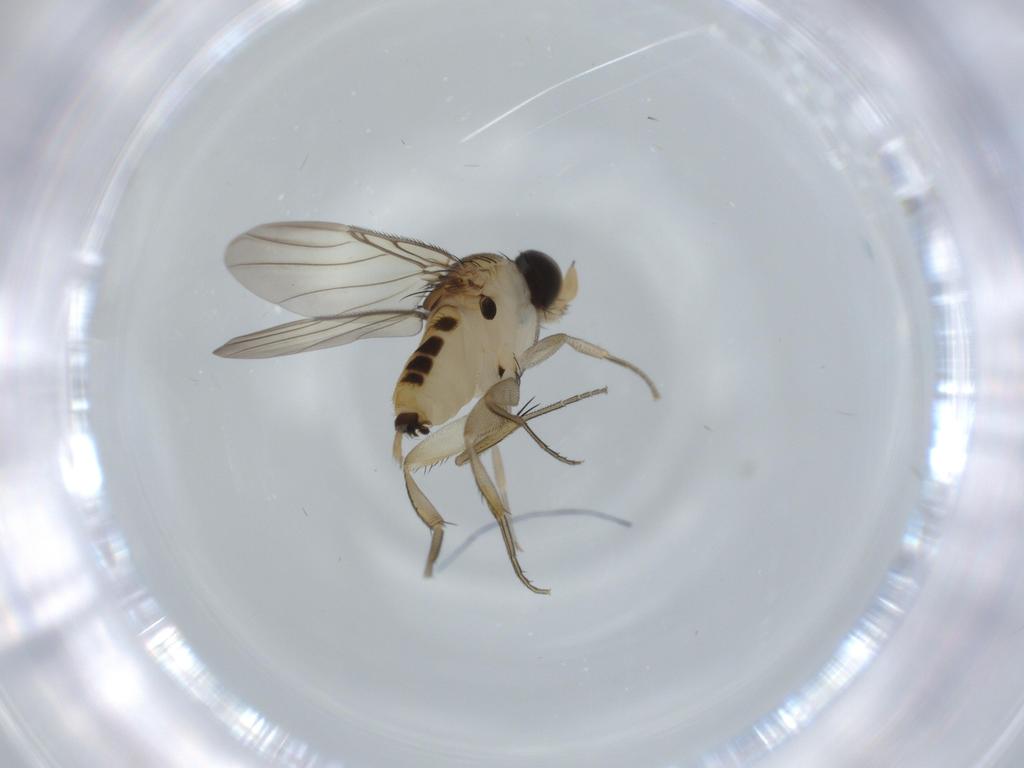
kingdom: Animalia
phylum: Arthropoda
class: Insecta
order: Diptera
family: Phoridae
